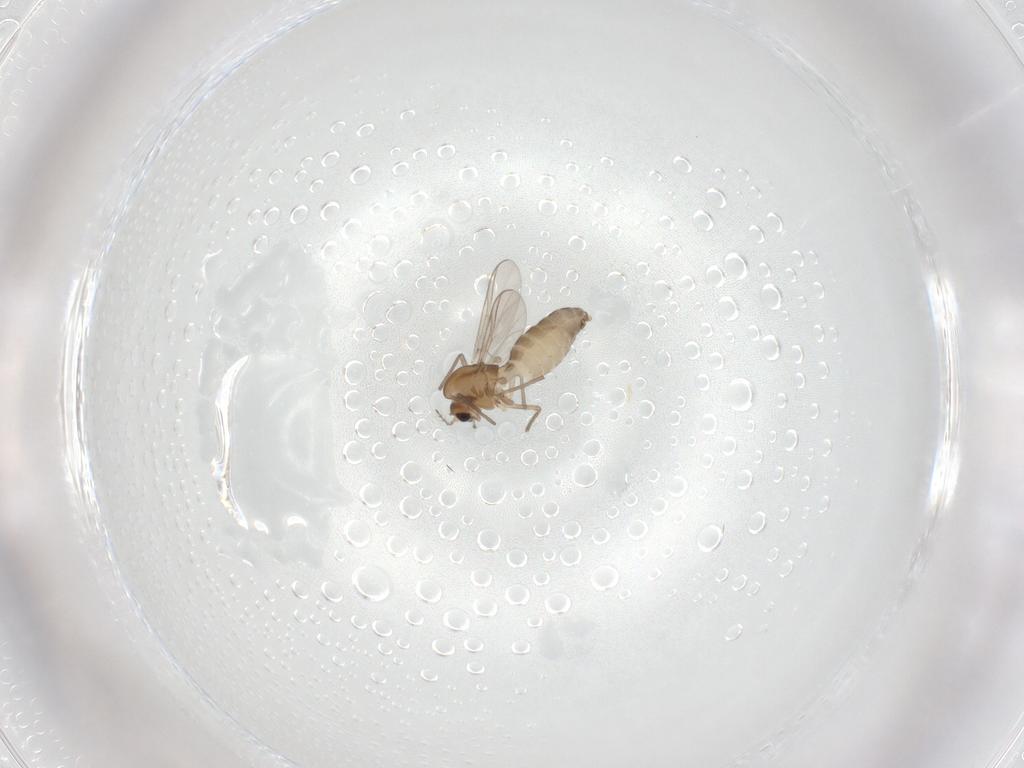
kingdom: Animalia
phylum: Arthropoda
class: Insecta
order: Diptera
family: Chironomidae
